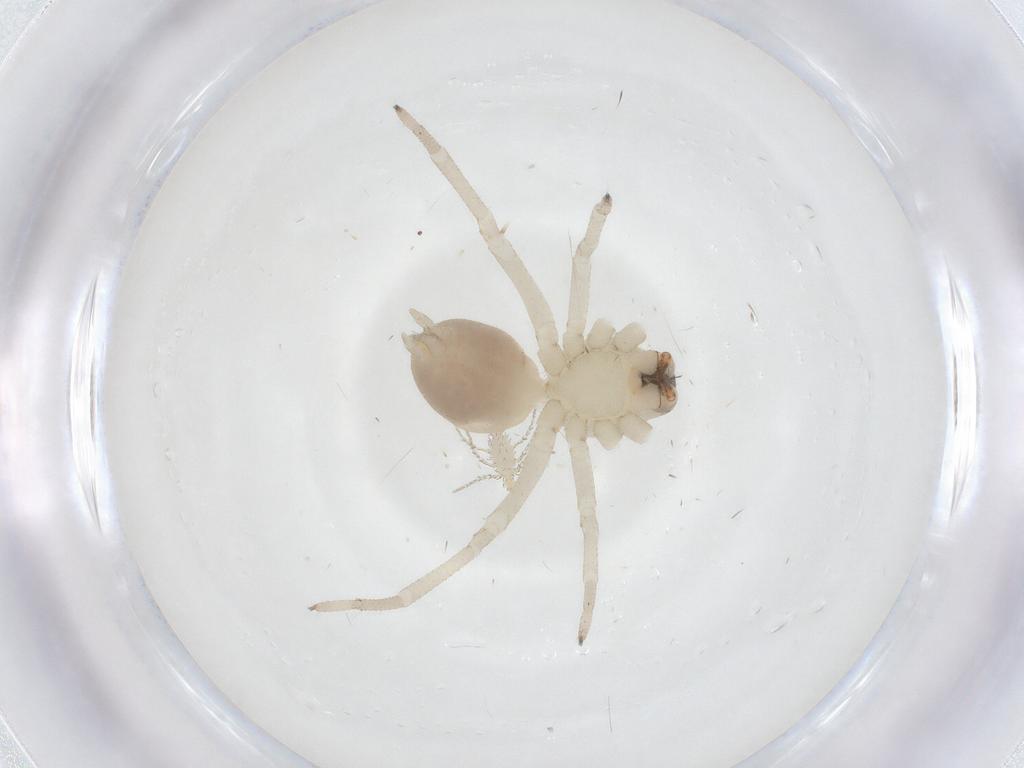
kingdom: Animalia
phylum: Arthropoda
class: Arachnida
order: Araneae
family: Cheiracanthiidae
